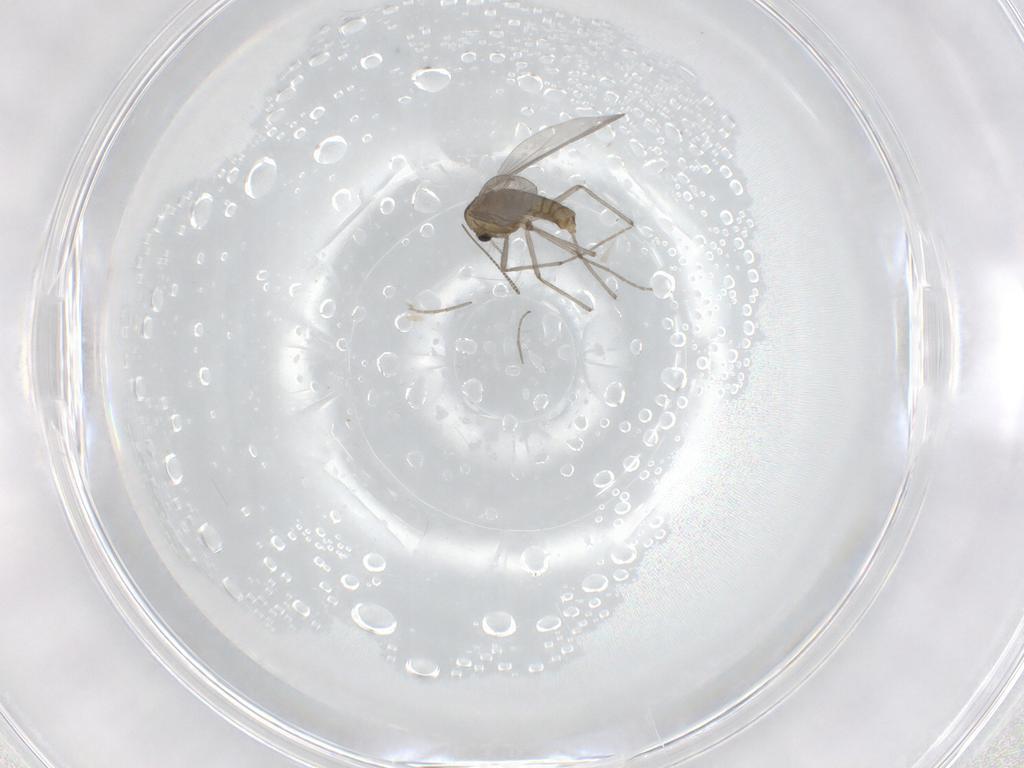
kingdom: Animalia
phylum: Arthropoda
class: Insecta
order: Diptera
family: Chironomidae
